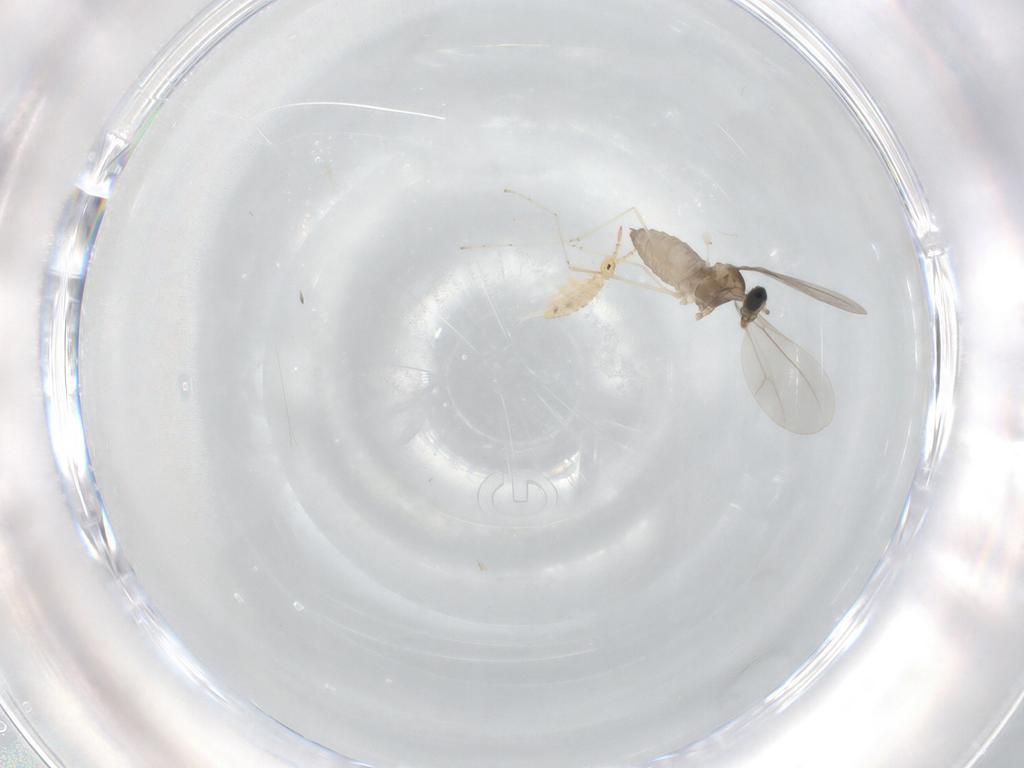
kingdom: Animalia
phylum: Arthropoda
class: Insecta
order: Diptera
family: Cecidomyiidae
